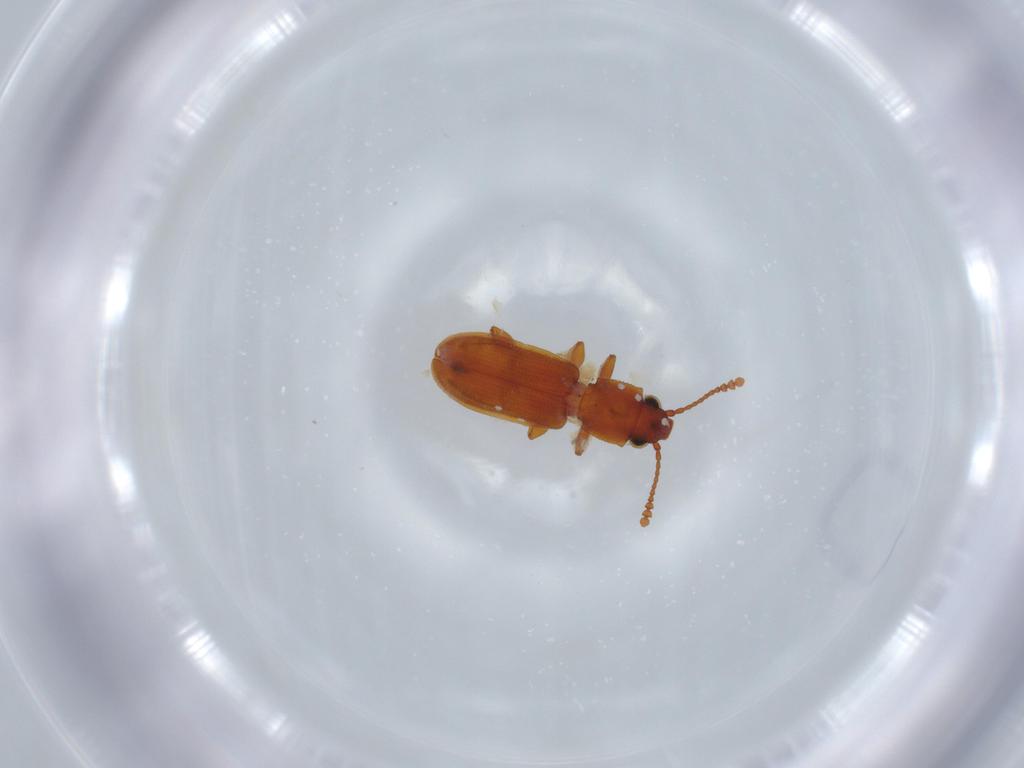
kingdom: Animalia
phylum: Arthropoda
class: Insecta
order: Coleoptera
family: Silvanidae
